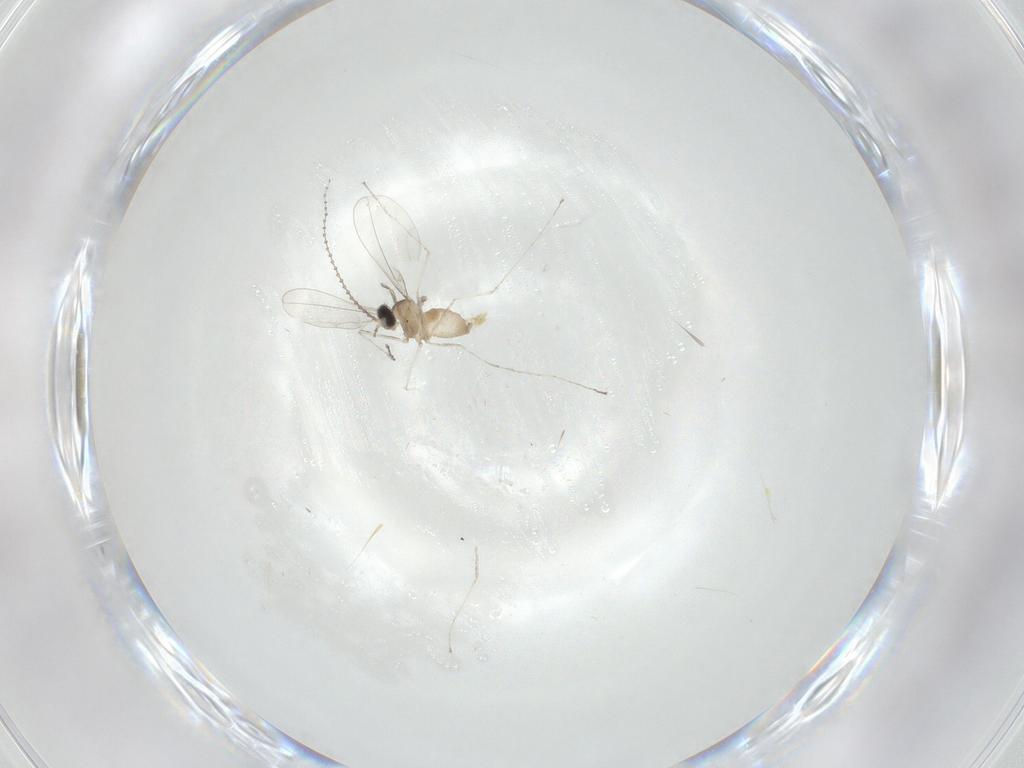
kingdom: Animalia
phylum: Arthropoda
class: Insecta
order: Diptera
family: Cecidomyiidae
